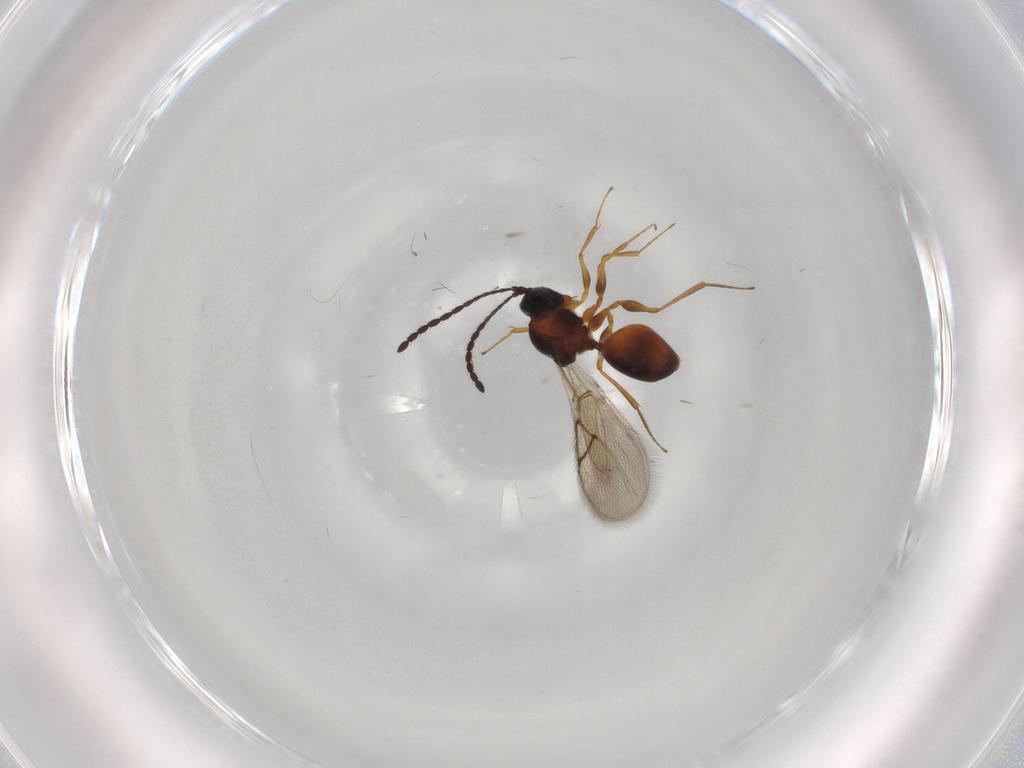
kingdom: Animalia
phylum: Arthropoda
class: Insecta
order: Hymenoptera
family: Figitidae
